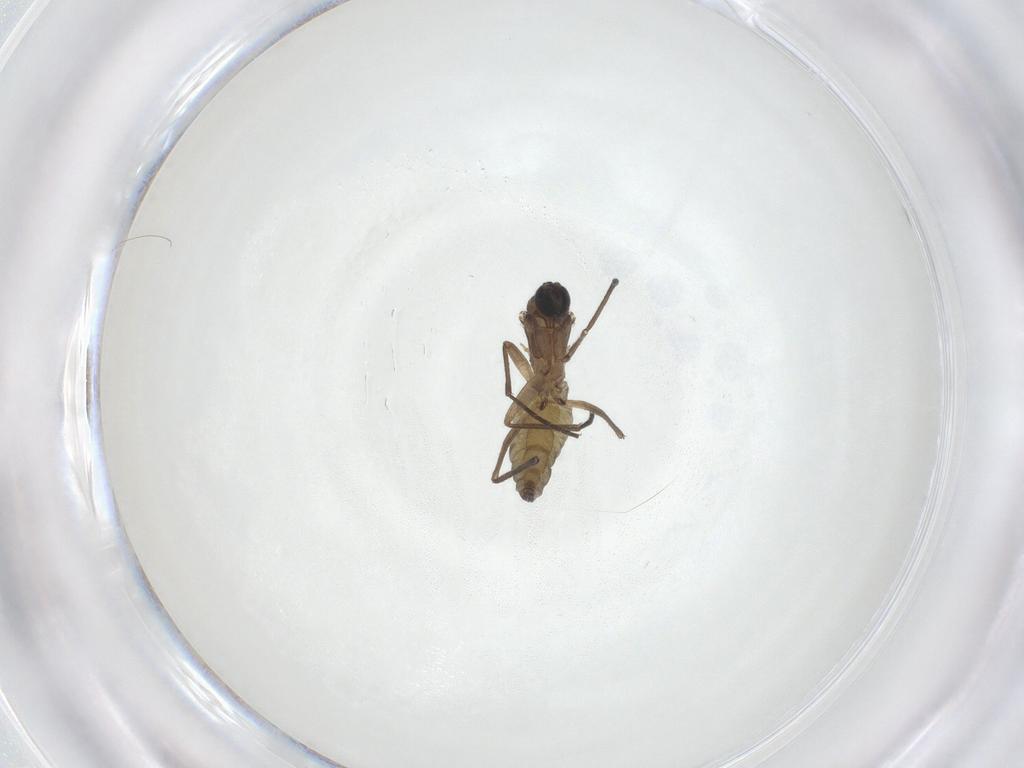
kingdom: Animalia
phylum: Arthropoda
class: Insecta
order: Diptera
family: Sciaridae
